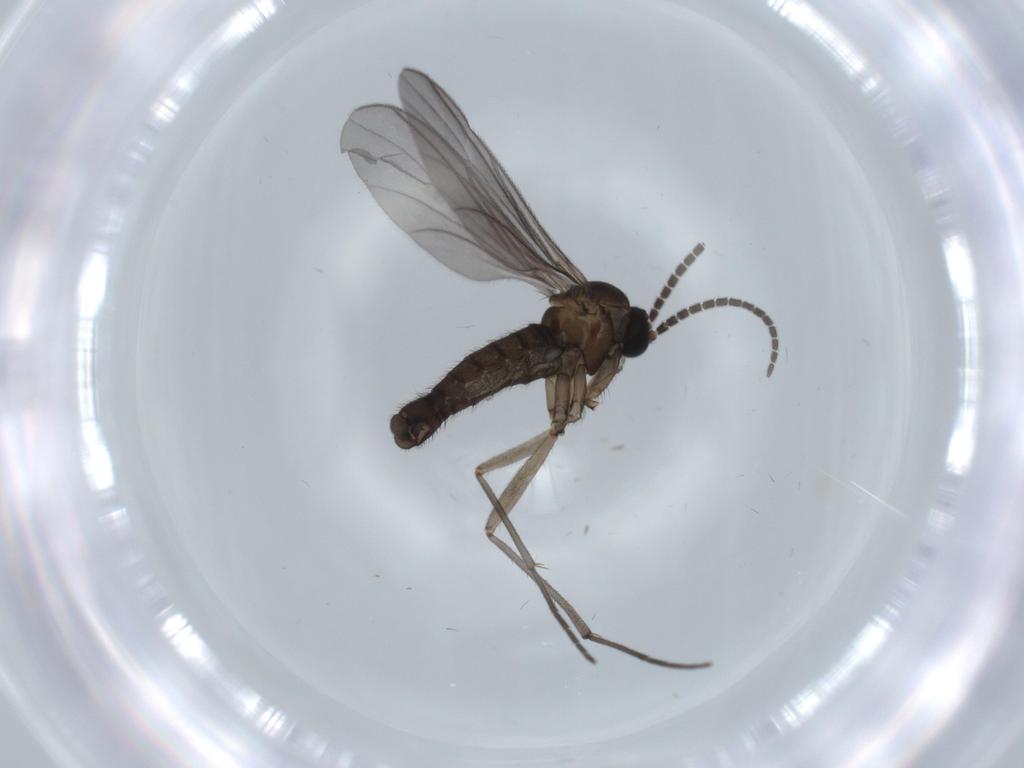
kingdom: Animalia
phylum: Arthropoda
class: Insecta
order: Diptera
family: Sciaridae
